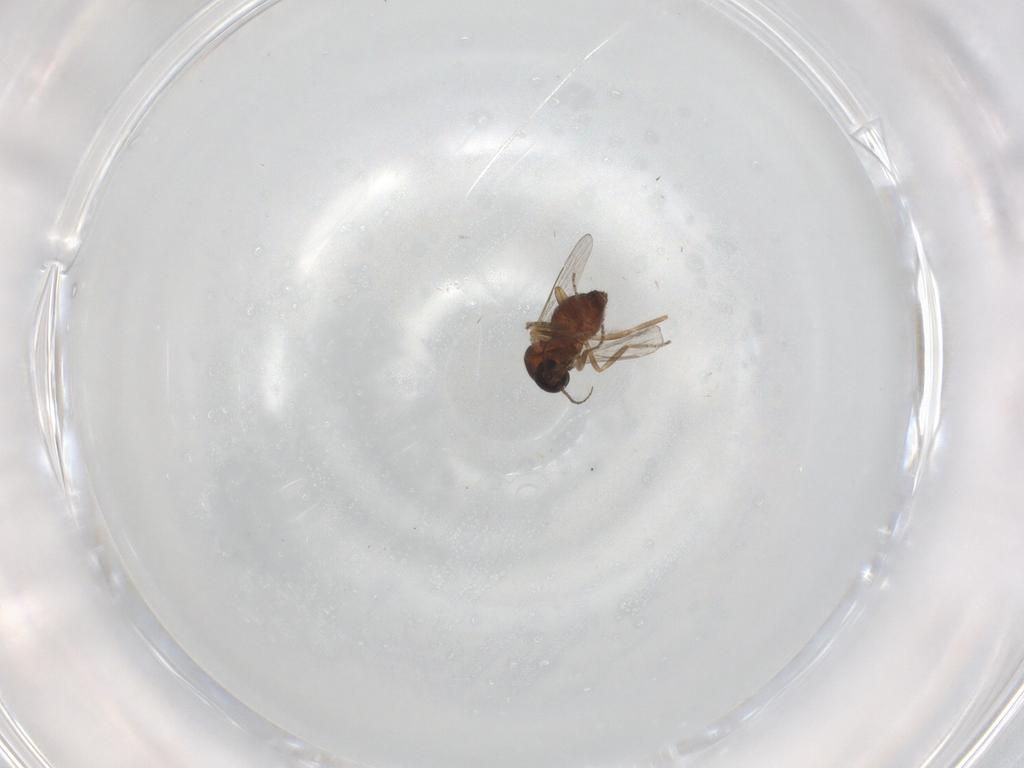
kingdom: Animalia
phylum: Arthropoda
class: Insecta
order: Diptera
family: Ceratopogonidae
